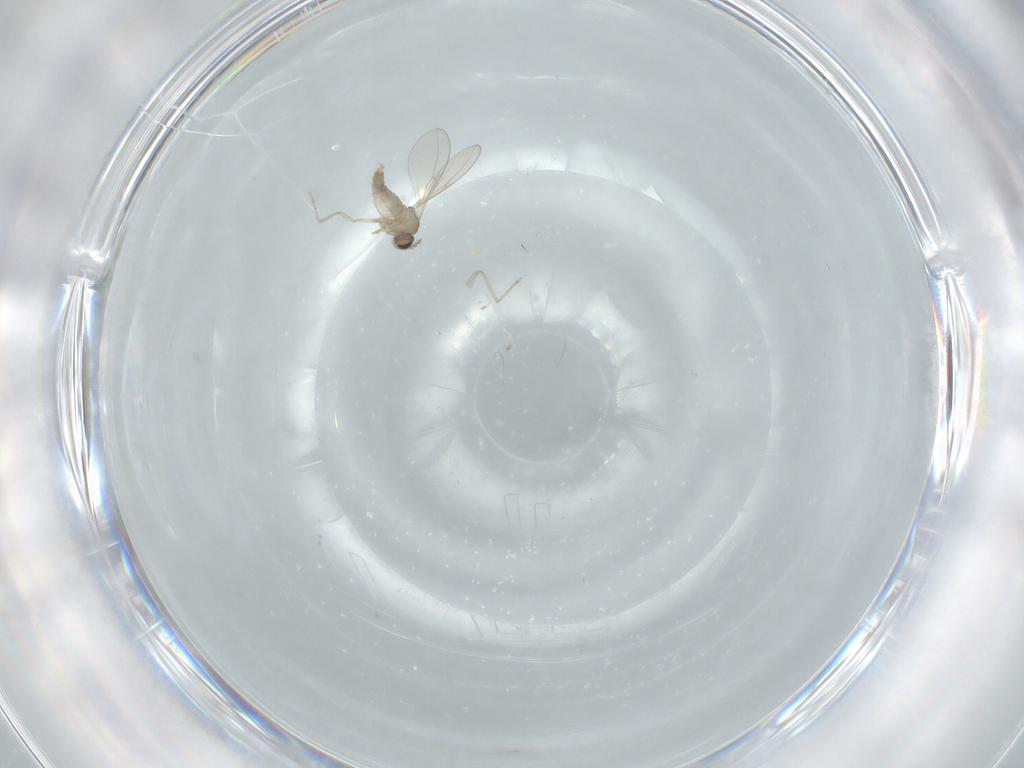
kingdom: Animalia
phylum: Arthropoda
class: Insecta
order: Diptera
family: Cecidomyiidae
